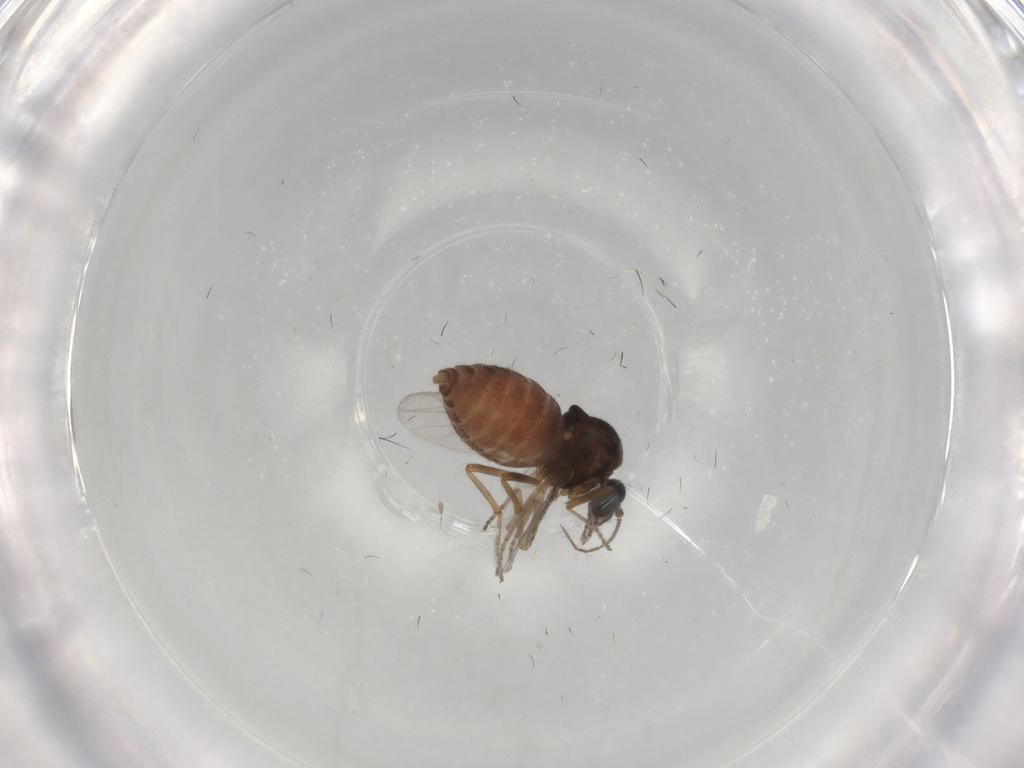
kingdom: Animalia
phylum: Arthropoda
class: Insecta
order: Diptera
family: Ceratopogonidae
